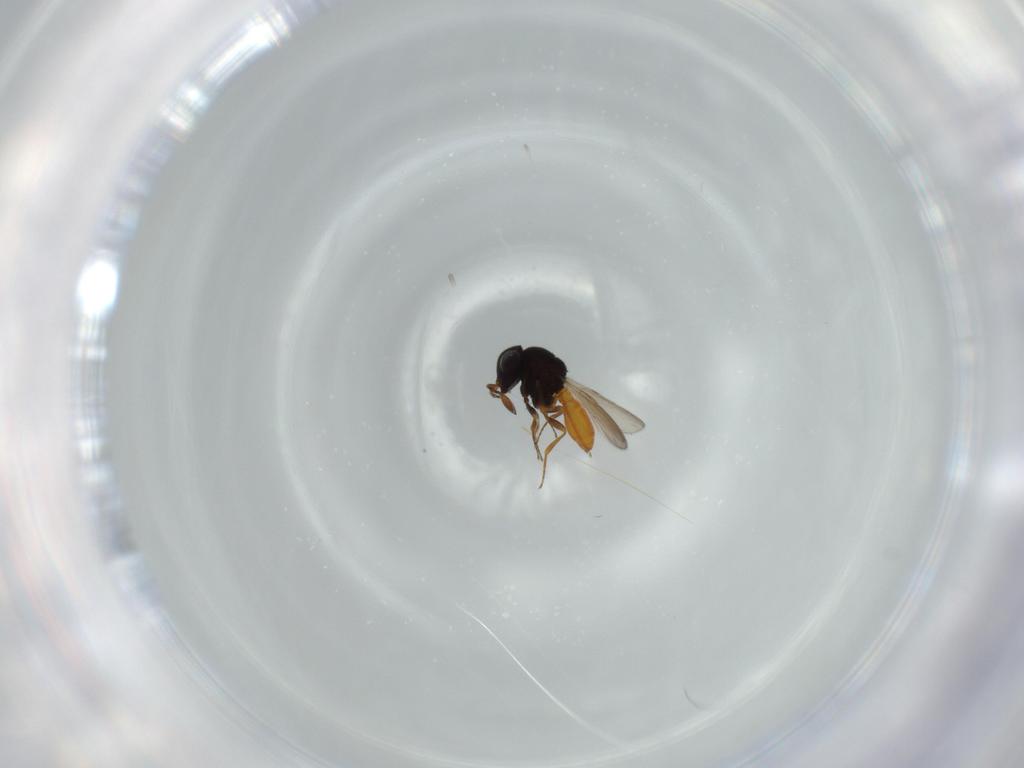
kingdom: Animalia
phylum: Arthropoda
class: Insecta
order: Hymenoptera
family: Scelionidae
